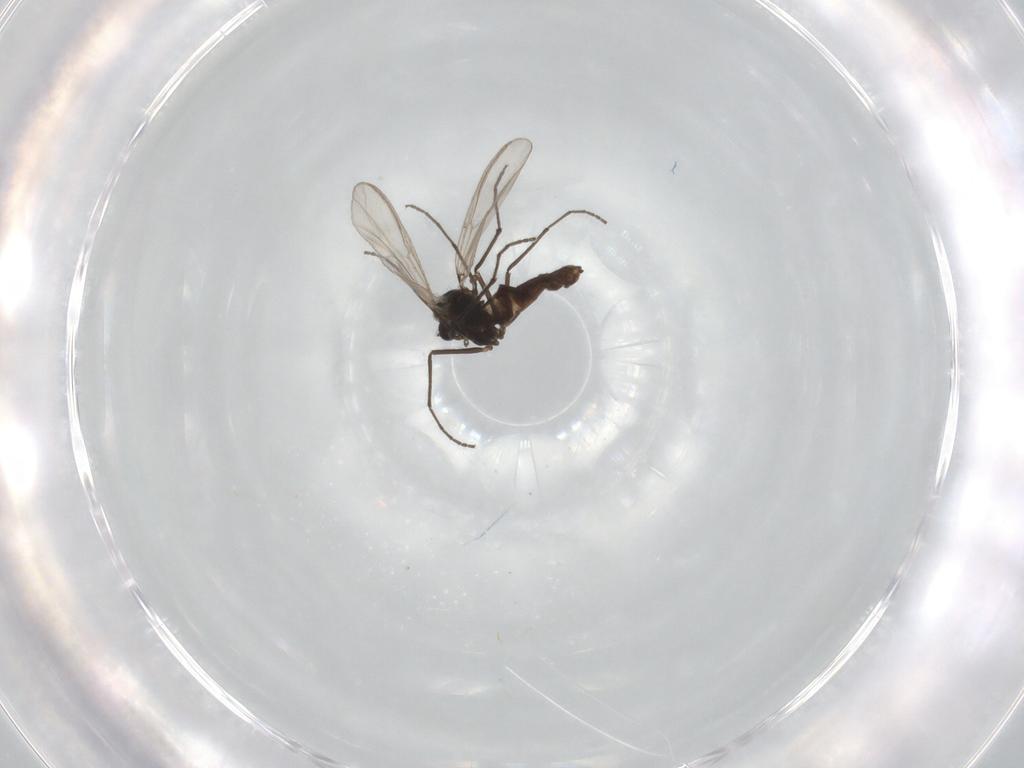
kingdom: Animalia
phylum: Arthropoda
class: Insecta
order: Diptera
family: Chironomidae
